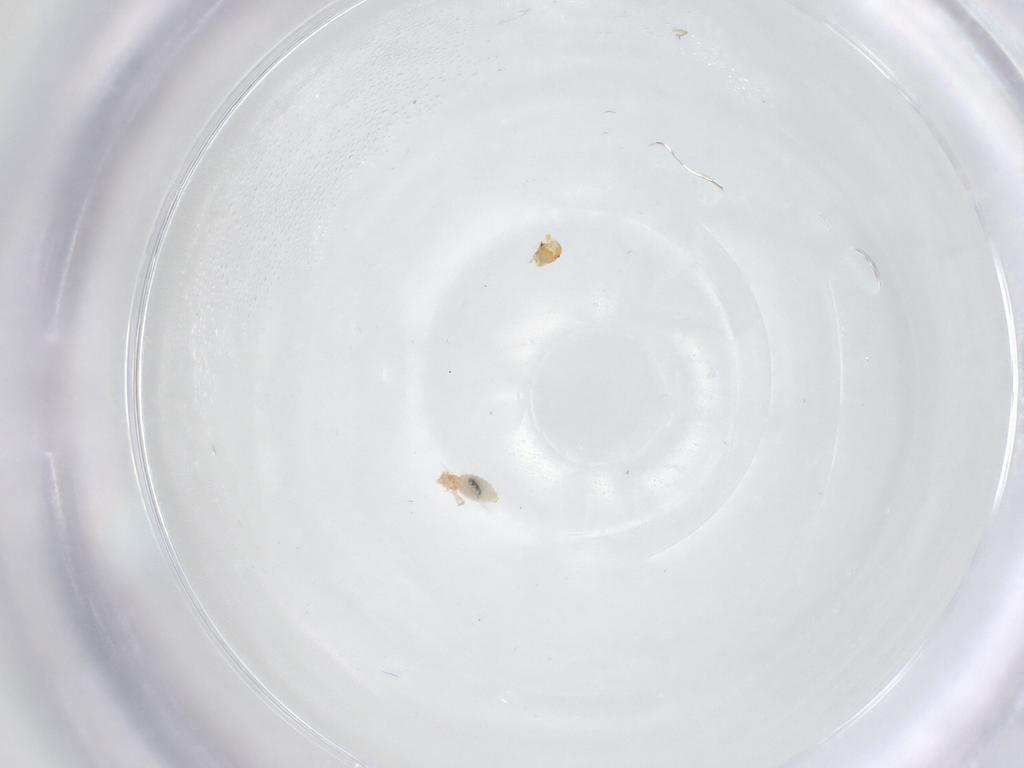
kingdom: Animalia
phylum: Arthropoda
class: Insecta
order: Diptera
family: Cecidomyiidae
